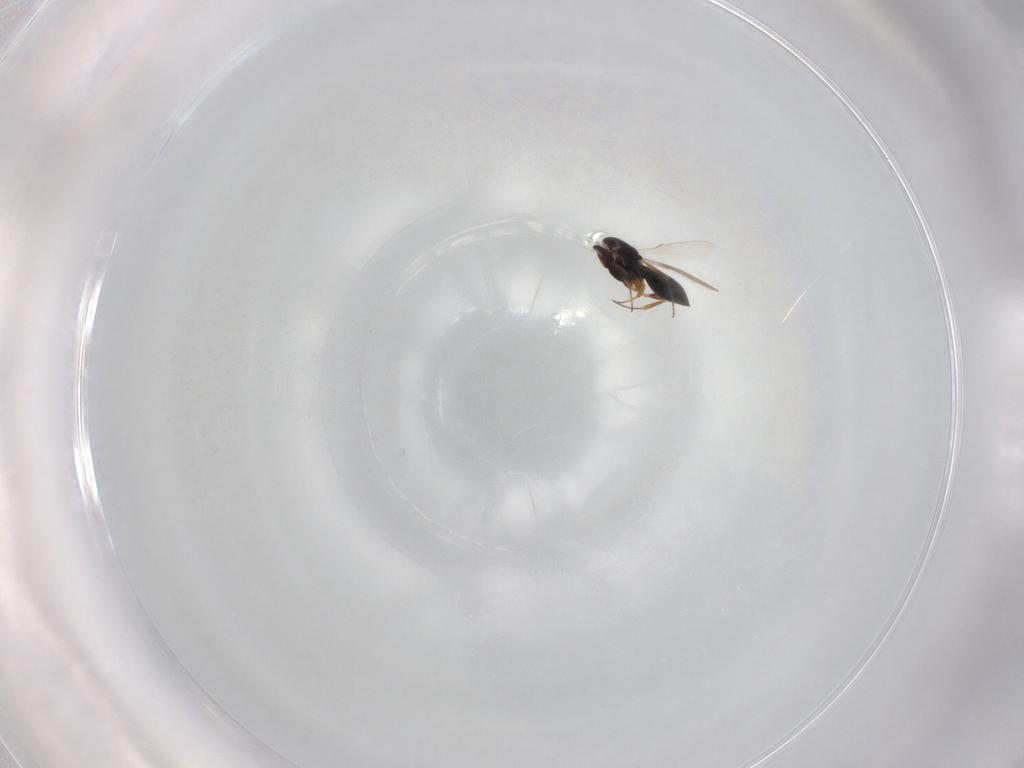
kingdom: Animalia
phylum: Arthropoda
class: Insecta
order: Hymenoptera
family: Scelionidae
